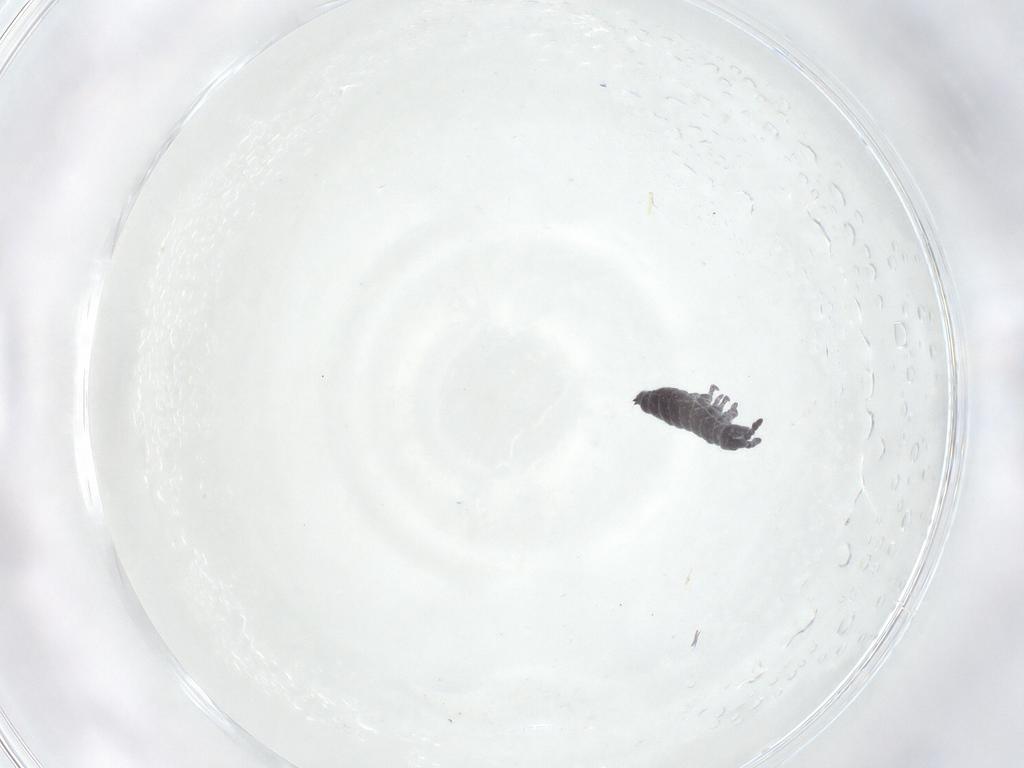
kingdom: Animalia
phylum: Arthropoda
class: Collembola
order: Poduromorpha
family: Hypogastruridae
